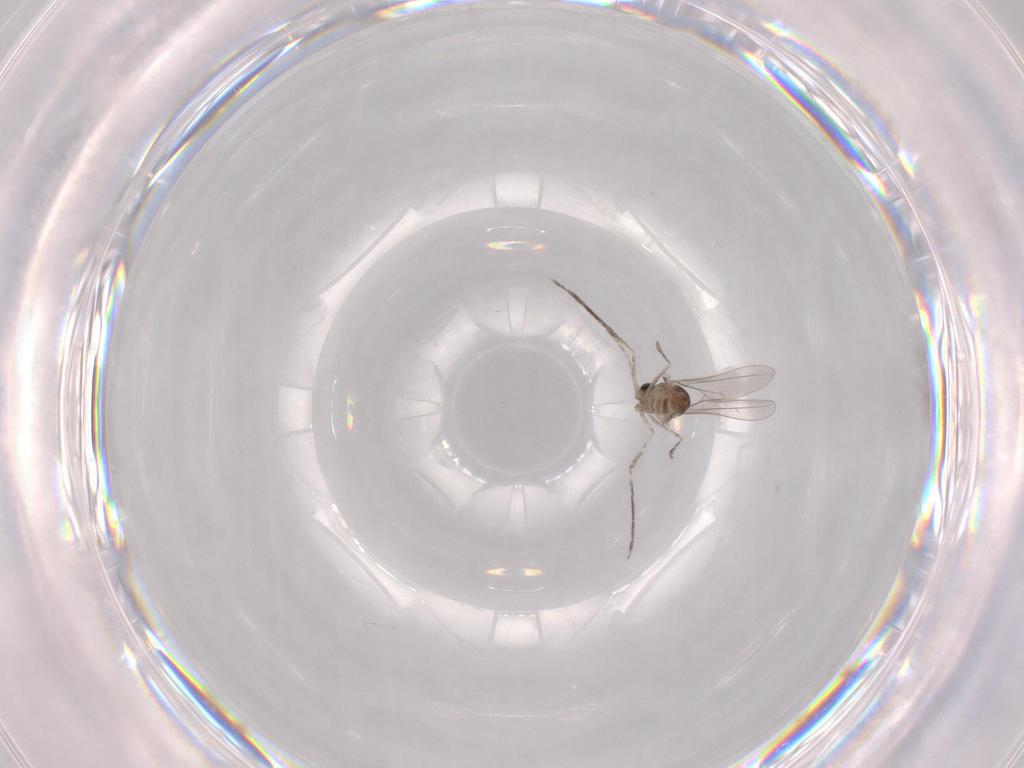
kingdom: Animalia
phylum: Arthropoda
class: Insecta
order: Diptera
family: Cecidomyiidae
